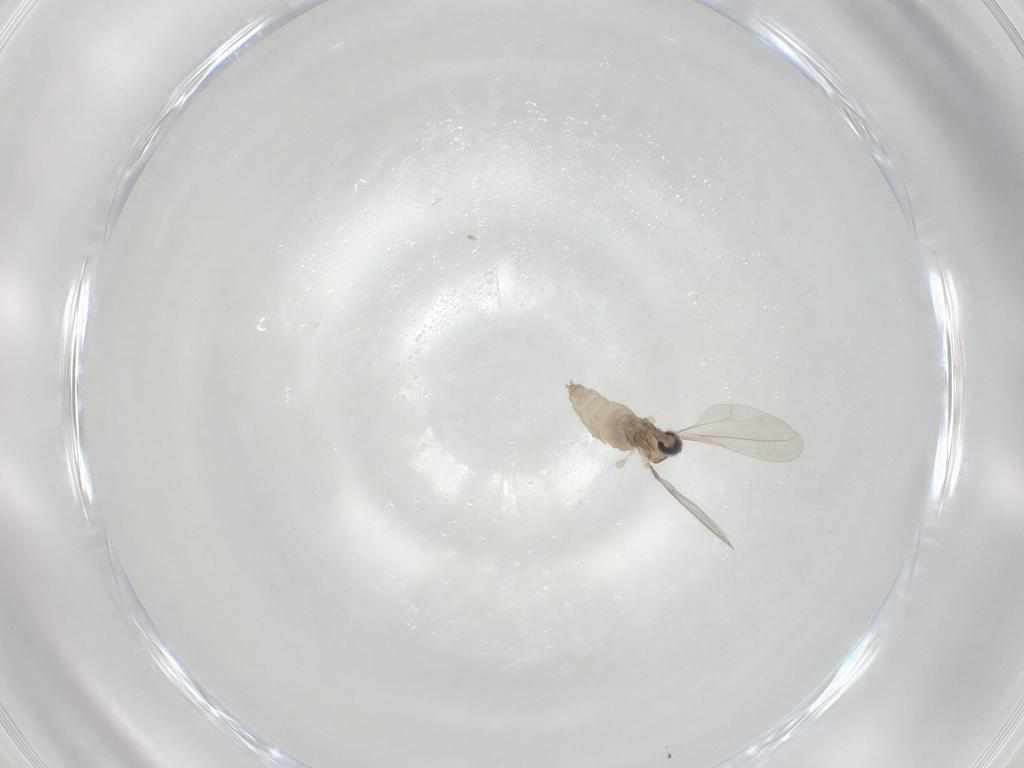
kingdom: Animalia
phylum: Arthropoda
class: Insecta
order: Diptera
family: Cecidomyiidae
